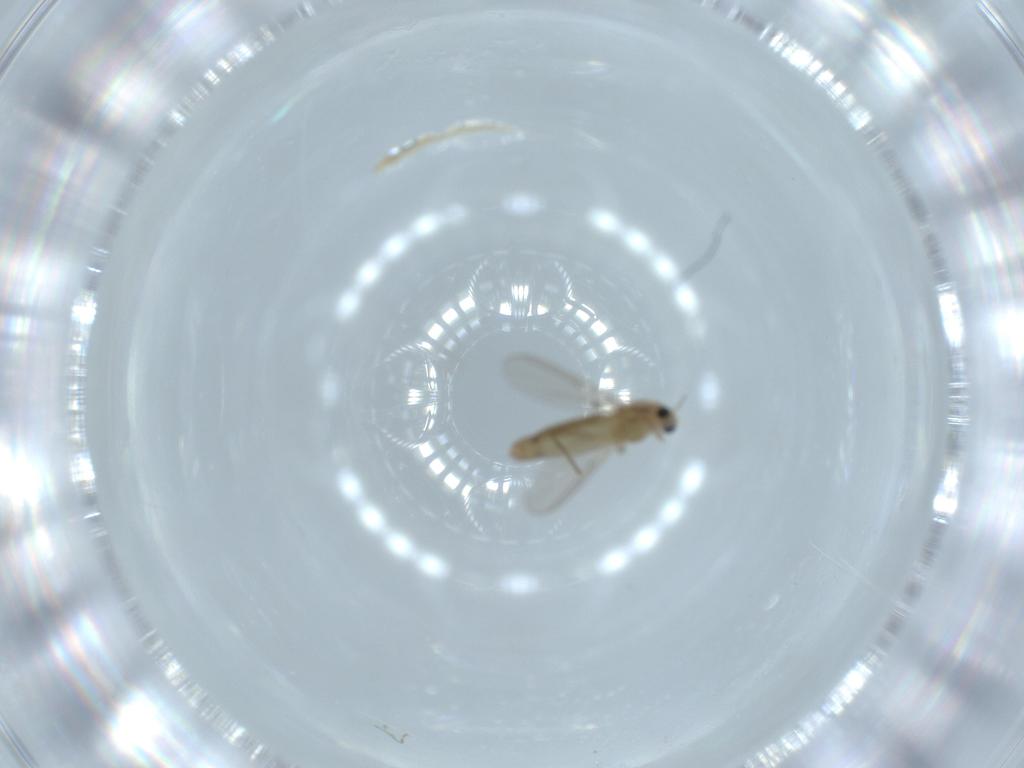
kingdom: Animalia
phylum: Arthropoda
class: Insecta
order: Diptera
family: Chironomidae
